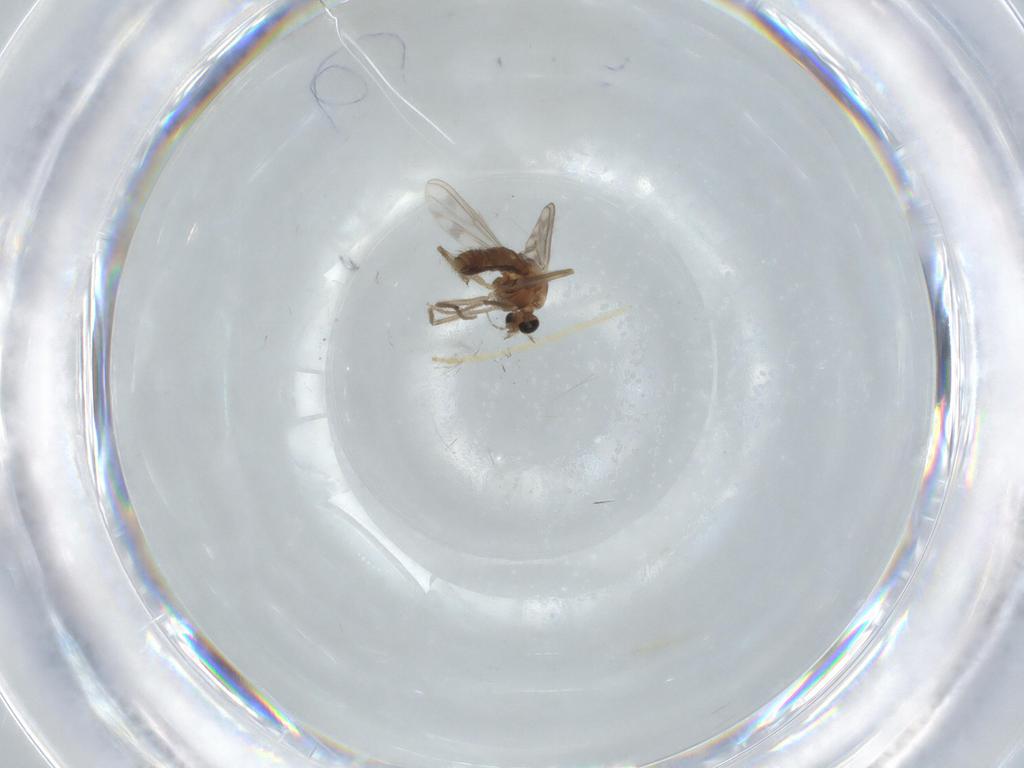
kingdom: Animalia
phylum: Arthropoda
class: Insecta
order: Diptera
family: Chironomidae
